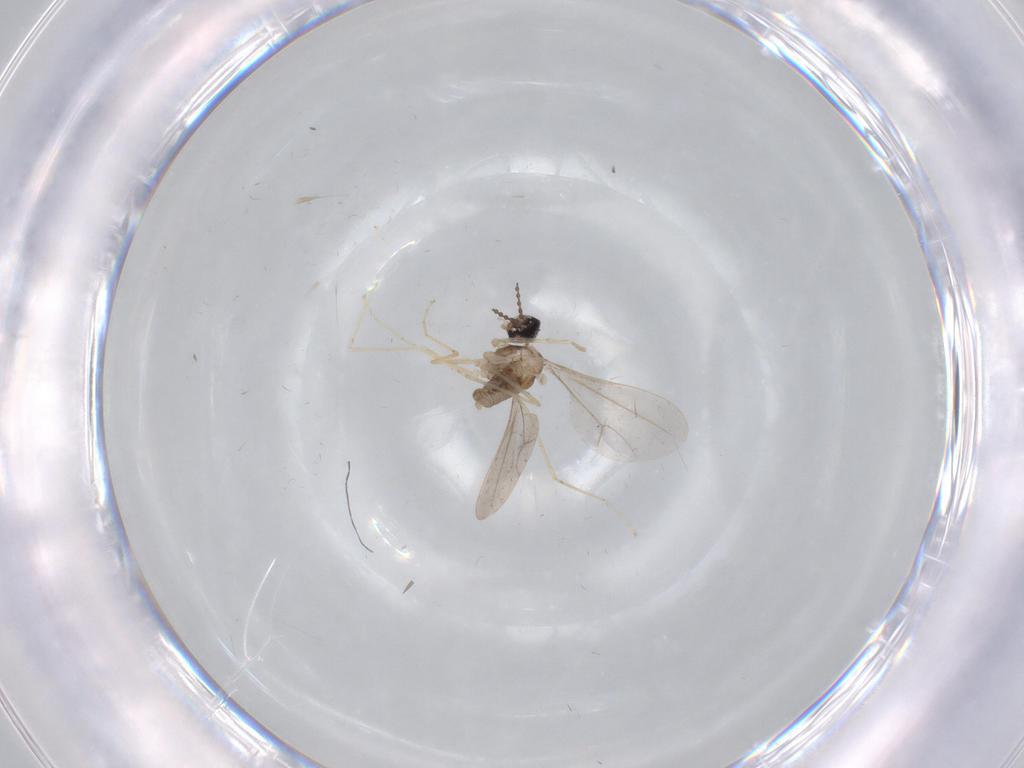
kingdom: Animalia
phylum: Arthropoda
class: Insecta
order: Diptera
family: Cecidomyiidae
